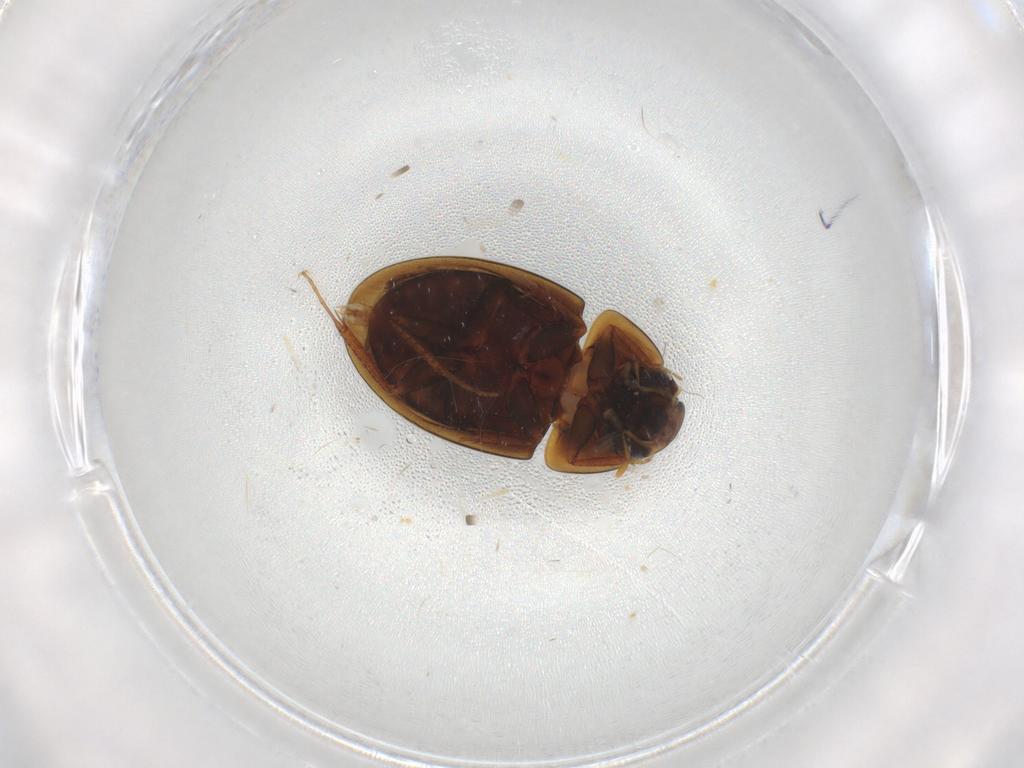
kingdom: Animalia
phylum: Arthropoda
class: Insecta
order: Coleoptera
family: Hydrophilidae
